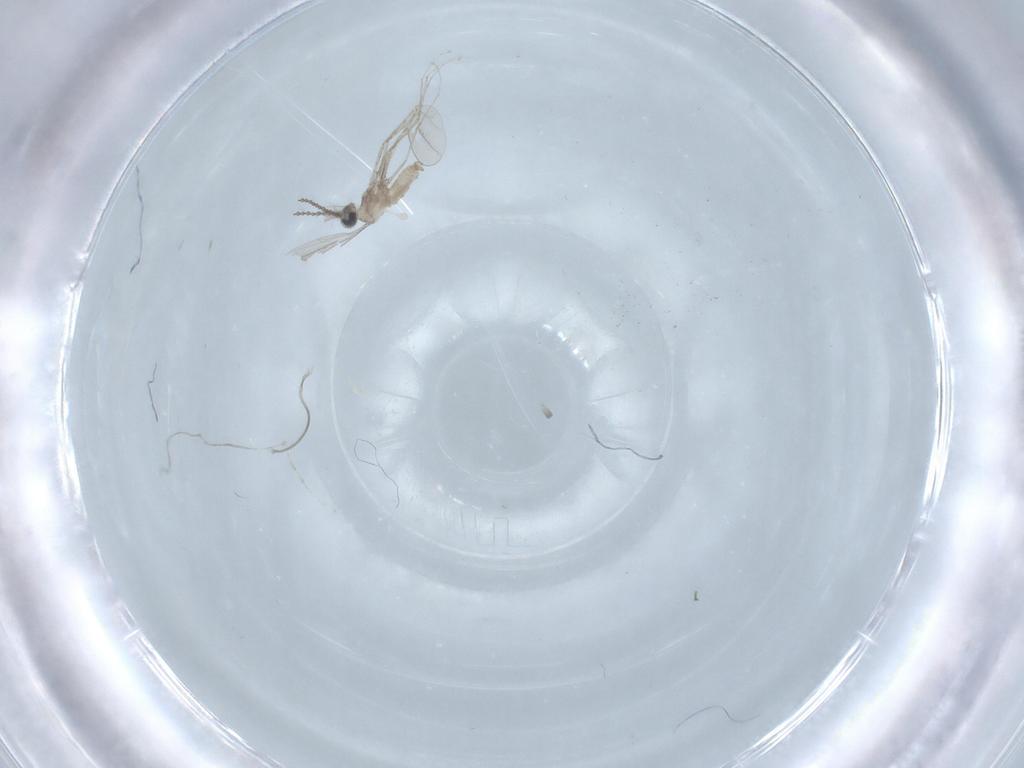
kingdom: Animalia
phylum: Arthropoda
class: Insecta
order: Diptera
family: Cecidomyiidae
